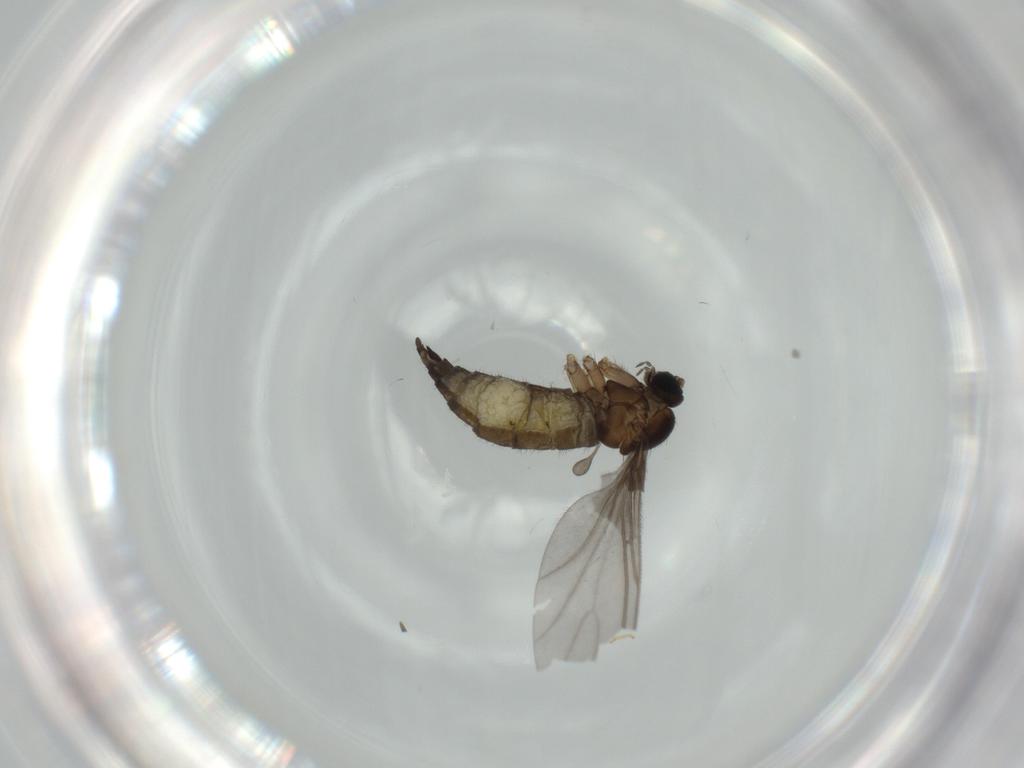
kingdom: Animalia
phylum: Arthropoda
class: Insecta
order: Diptera
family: Sciaridae
